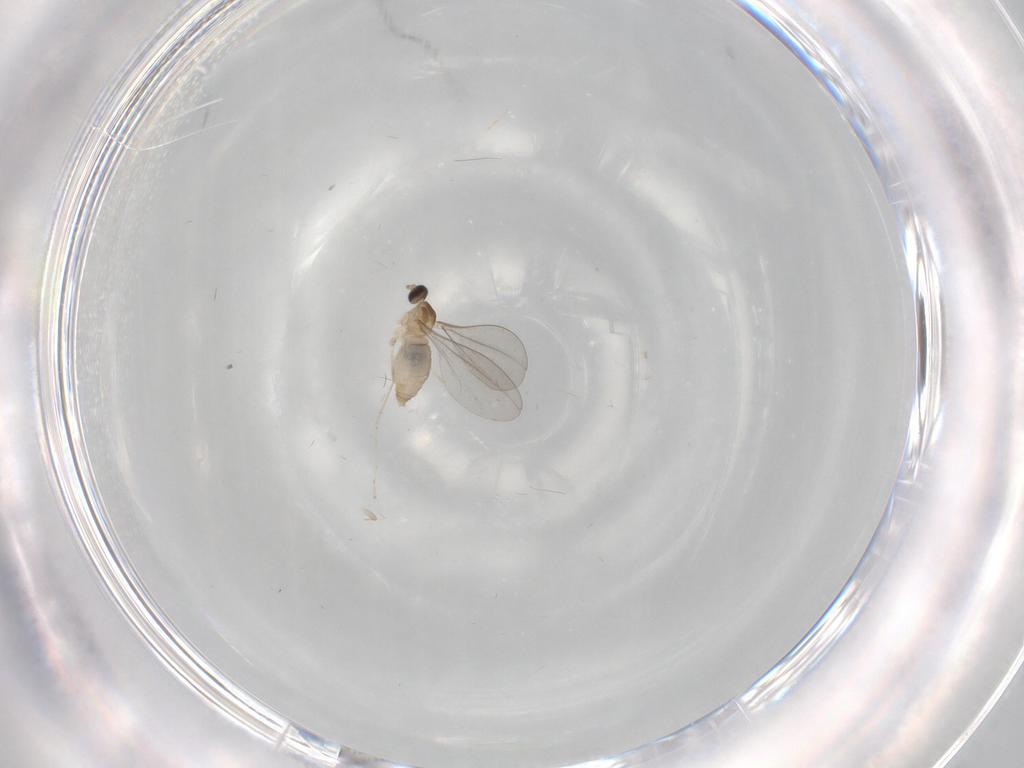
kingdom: Animalia
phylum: Arthropoda
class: Insecta
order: Diptera
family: Cecidomyiidae
